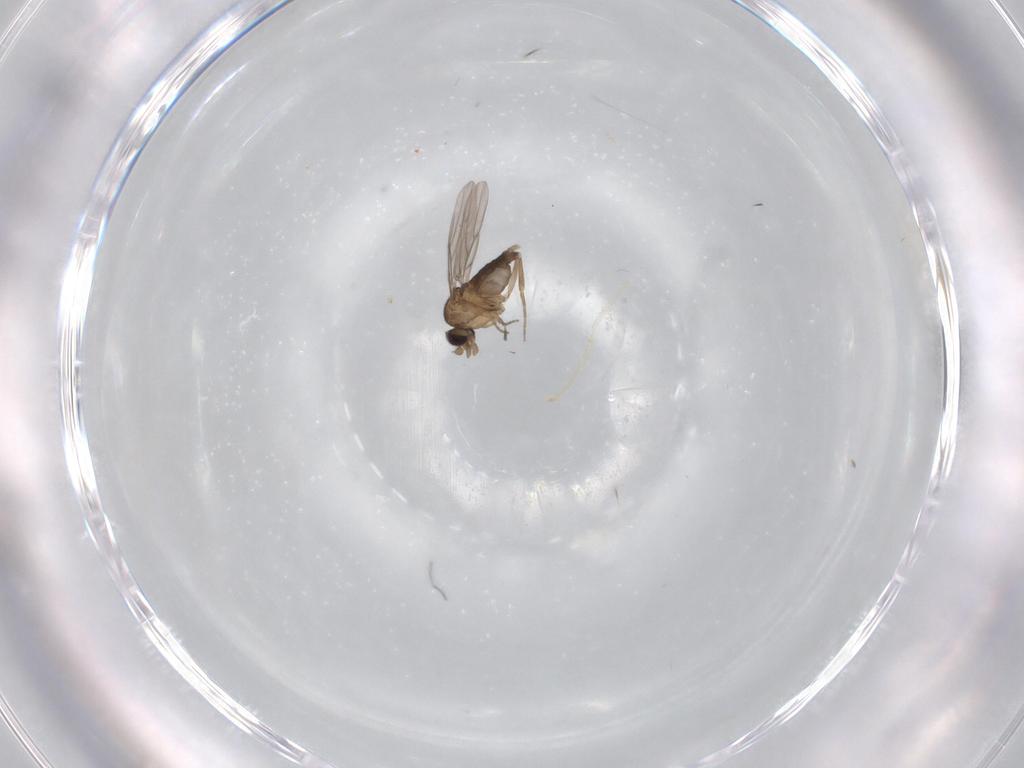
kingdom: Animalia
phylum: Arthropoda
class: Insecta
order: Diptera
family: Phoridae
